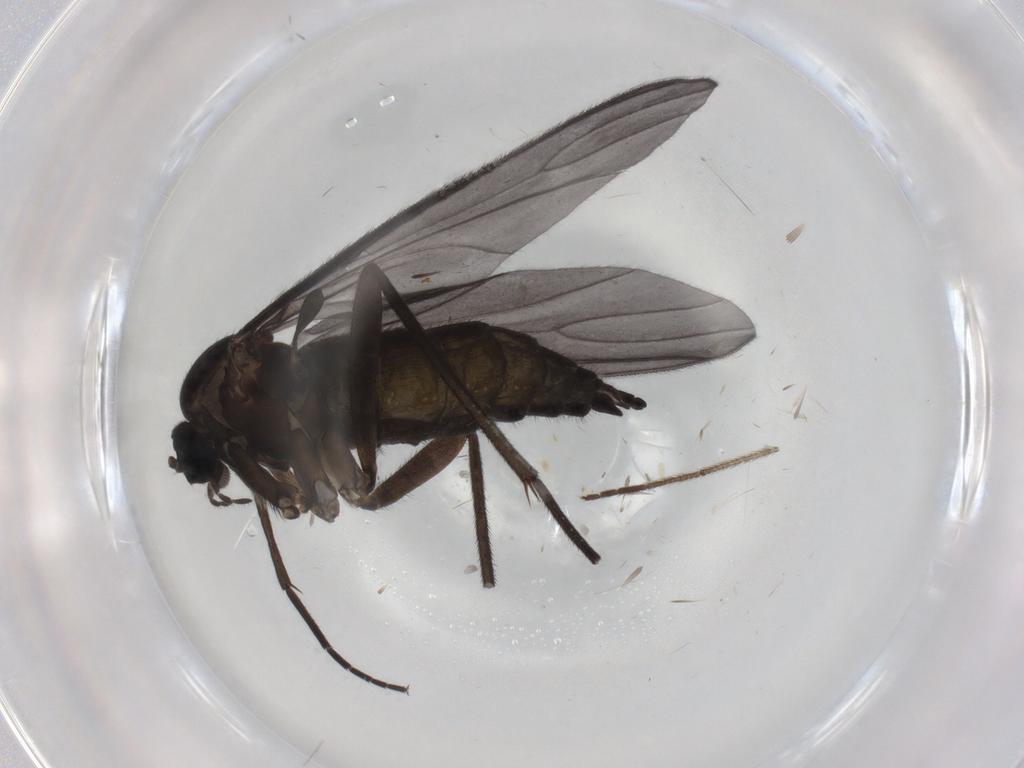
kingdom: Animalia
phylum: Arthropoda
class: Insecta
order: Diptera
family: Sciaridae
